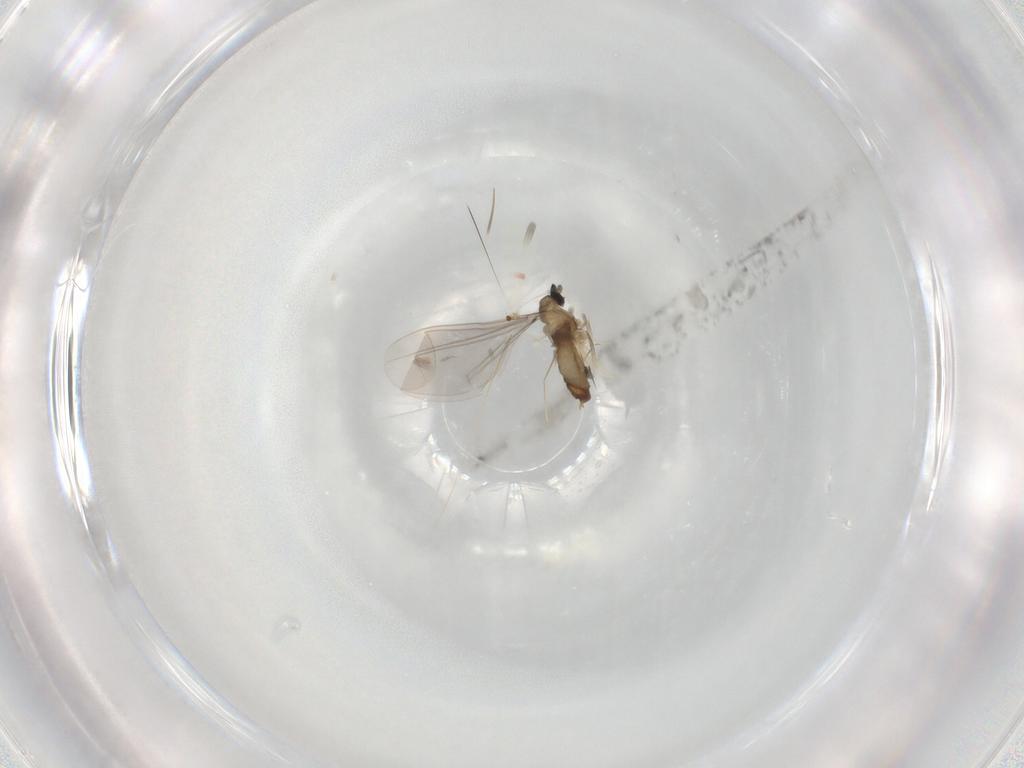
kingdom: Animalia
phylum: Arthropoda
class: Insecta
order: Diptera
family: Cecidomyiidae
